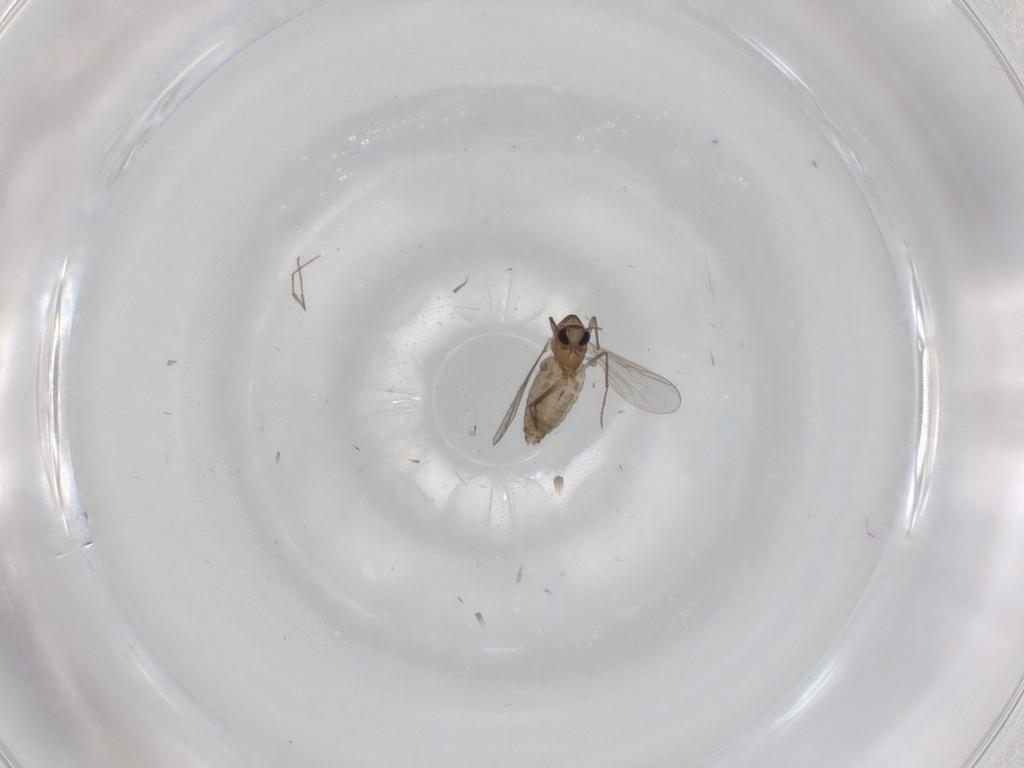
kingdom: Animalia
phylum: Arthropoda
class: Insecta
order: Diptera
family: Chironomidae
